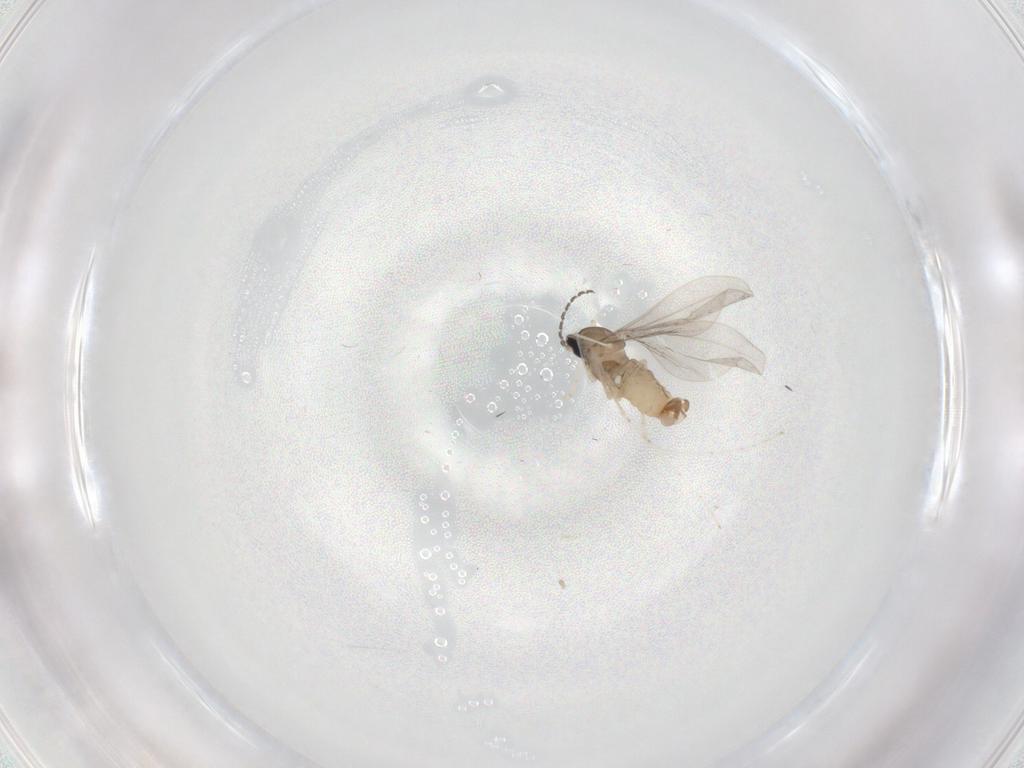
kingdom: Animalia
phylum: Arthropoda
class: Insecta
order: Diptera
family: Cecidomyiidae
